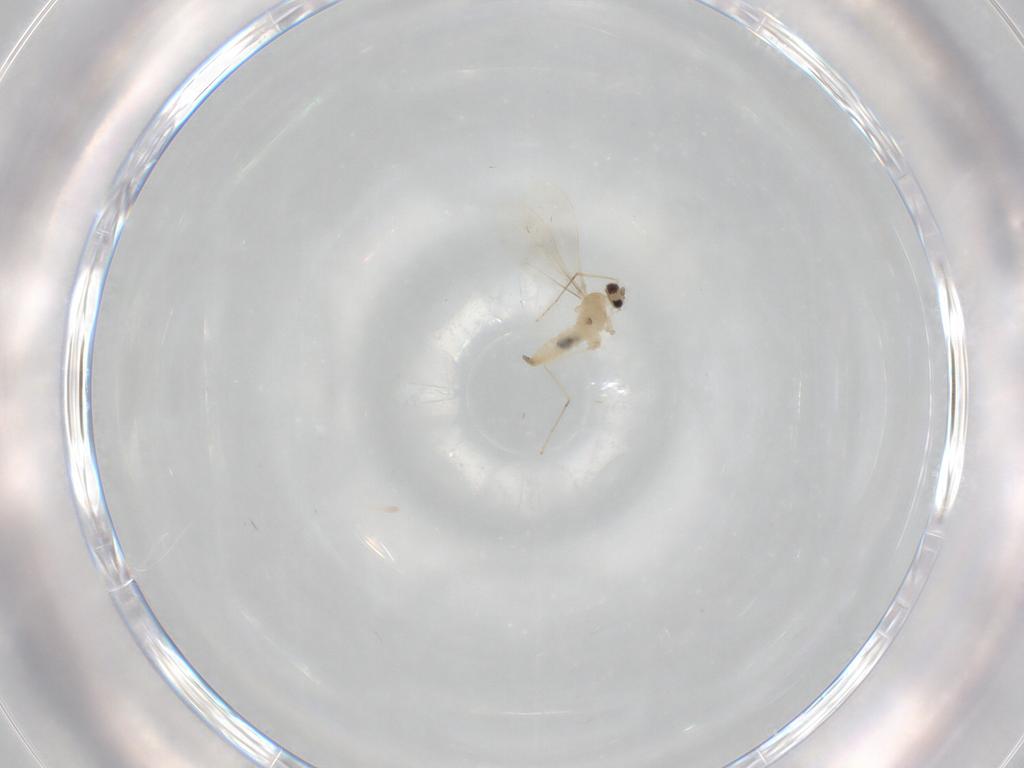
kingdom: Animalia
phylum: Arthropoda
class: Insecta
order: Diptera
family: Cecidomyiidae
